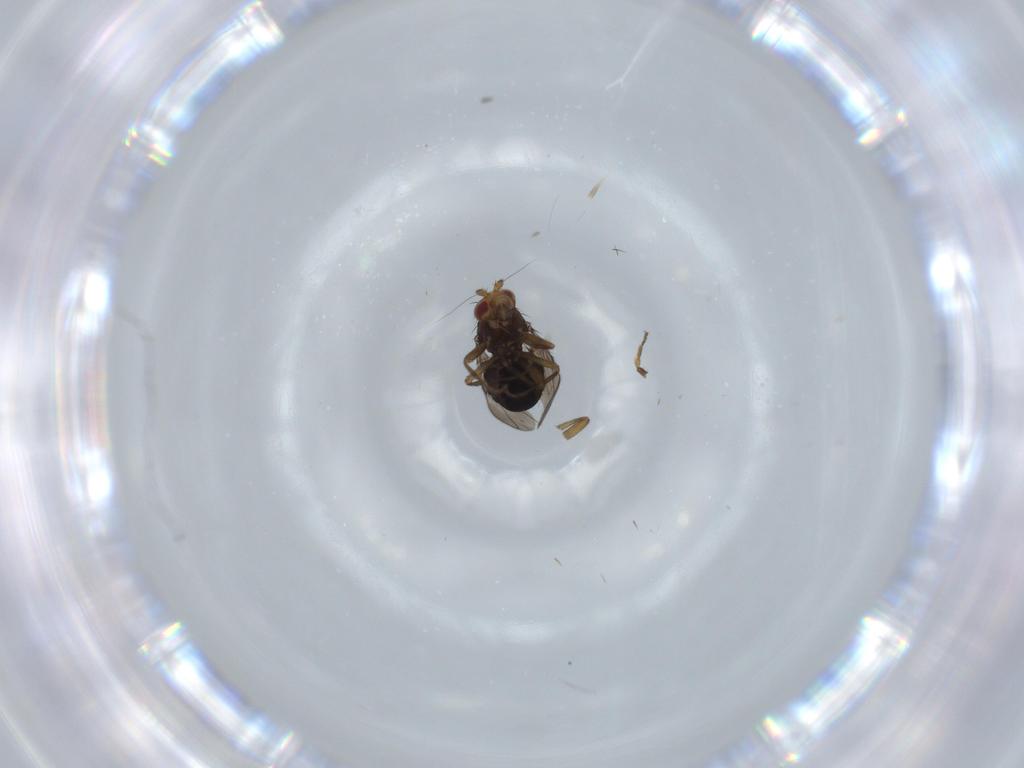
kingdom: Animalia
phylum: Arthropoda
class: Insecta
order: Diptera
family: Sphaeroceridae
